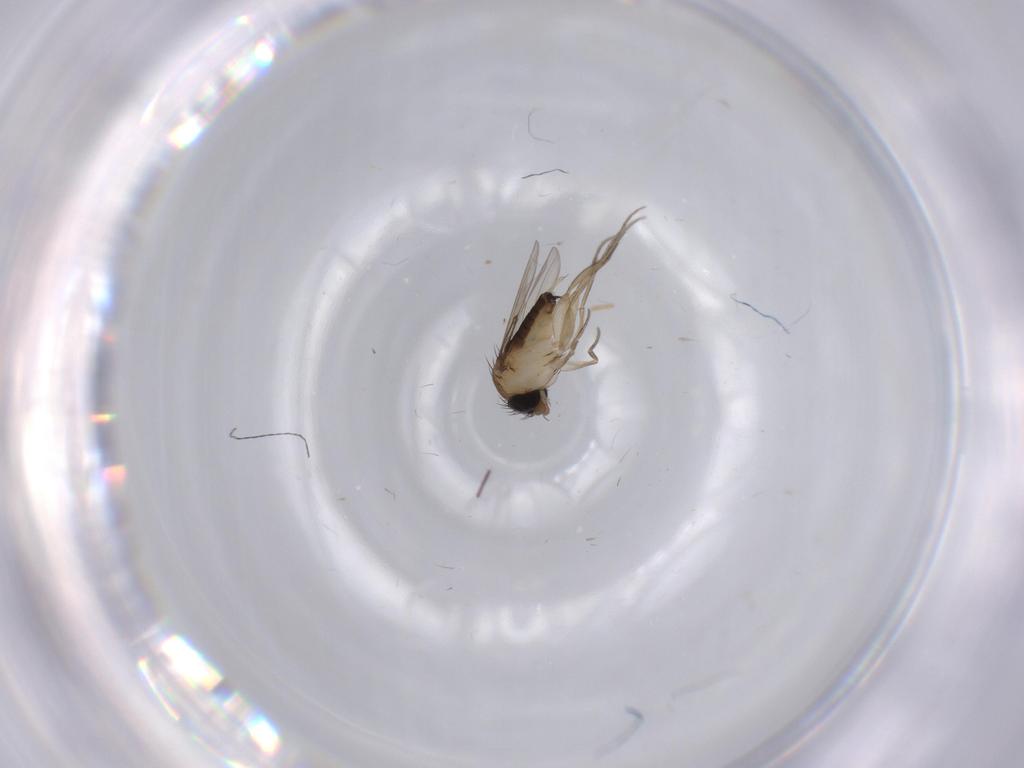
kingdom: Animalia
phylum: Arthropoda
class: Insecta
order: Diptera
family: Phoridae
